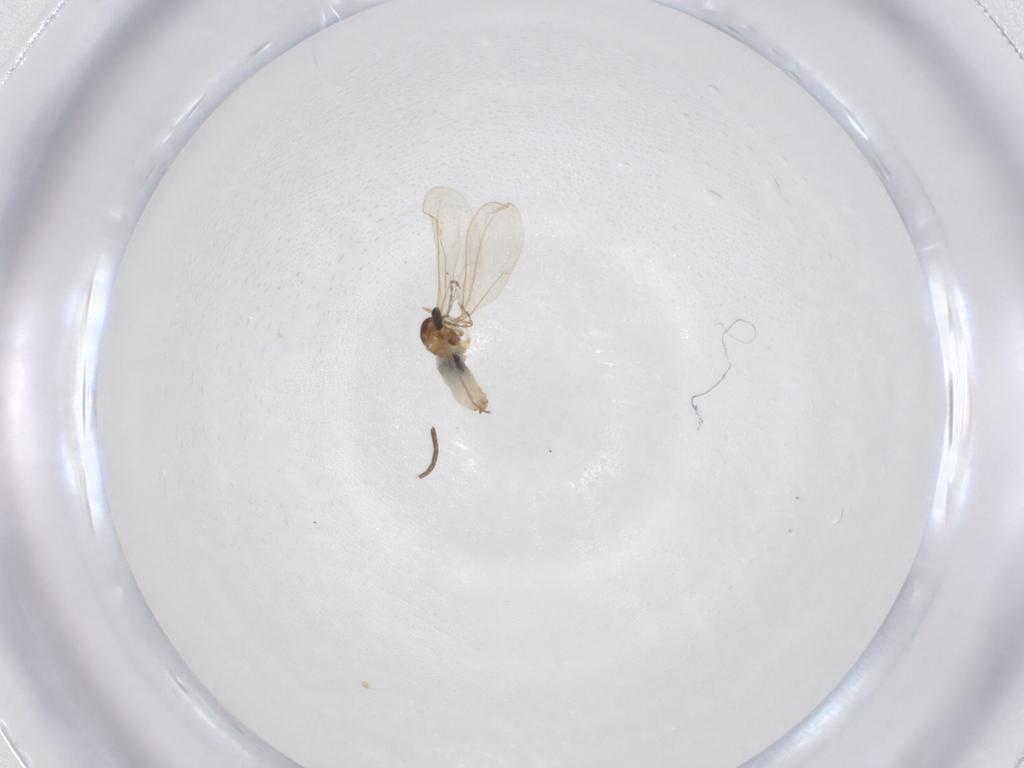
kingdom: Animalia
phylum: Arthropoda
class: Insecta
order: Diptera
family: Cecidomyiidae
